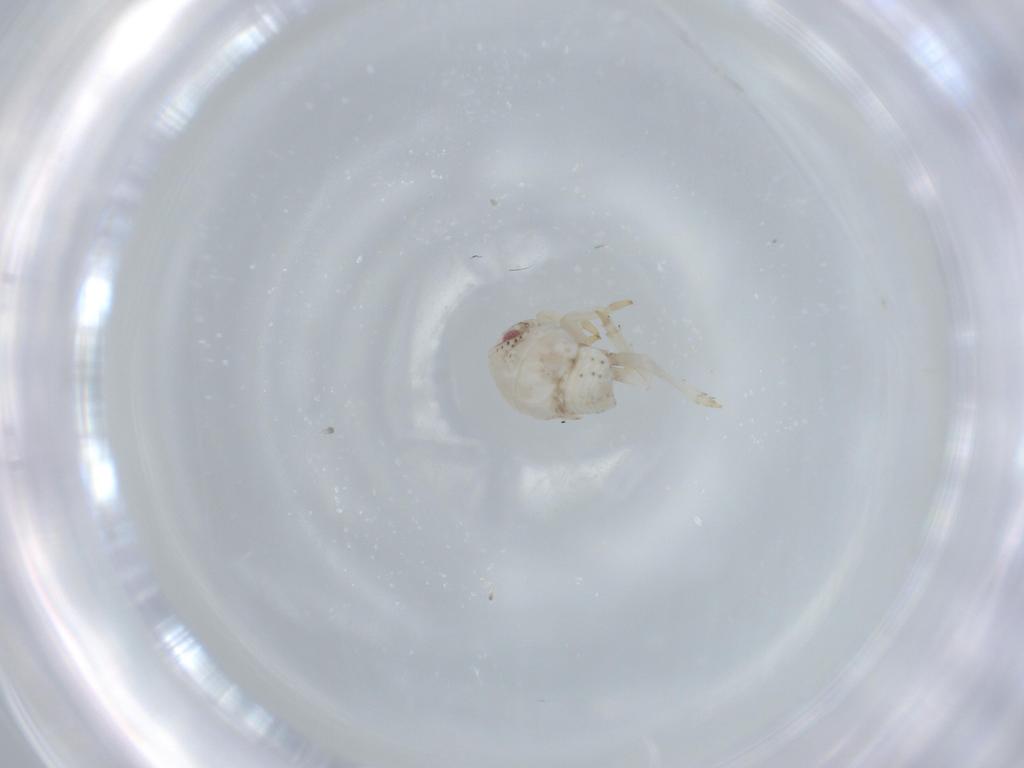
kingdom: Animalia
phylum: Arthropoda
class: Insecta
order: Hemiptera
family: Acanaloniidae
